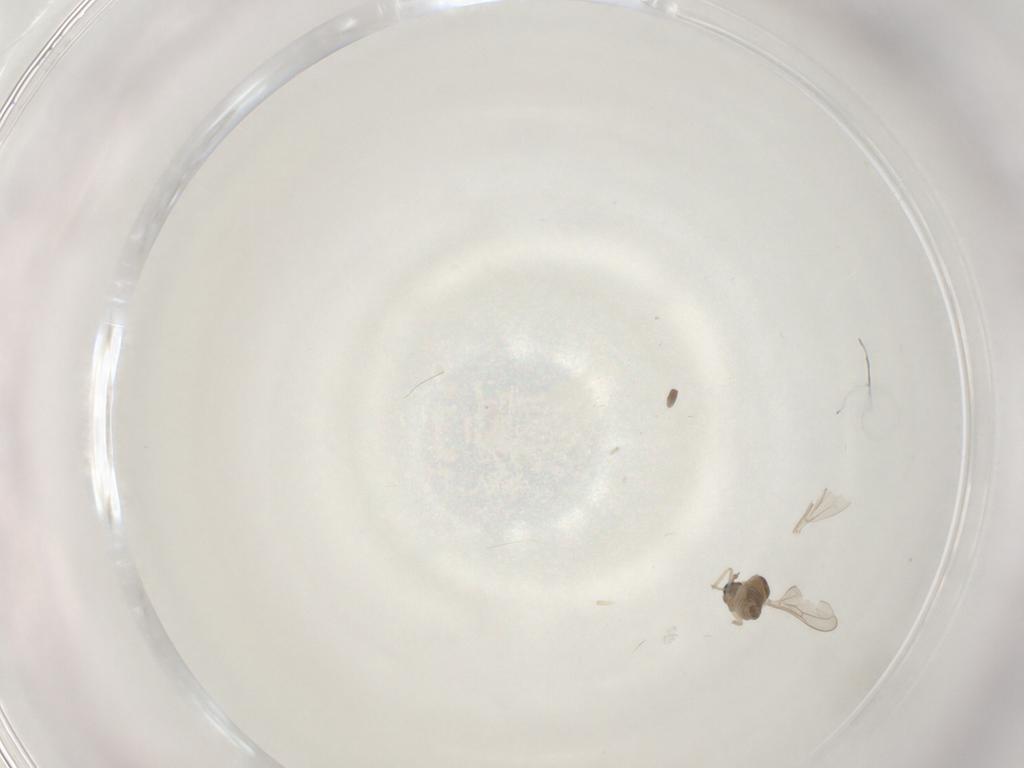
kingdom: Animalia
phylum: Arthropoda
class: Insecta
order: Diptera
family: Cecidomyiidae
